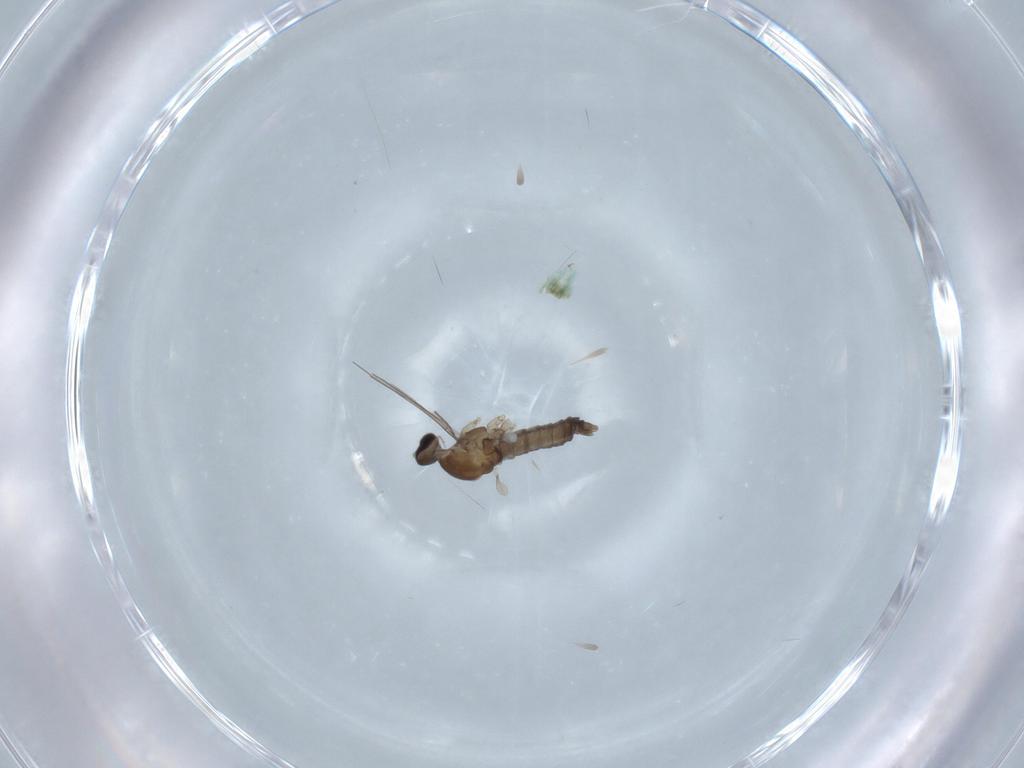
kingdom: Animalia
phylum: Arthropoda
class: Insecta
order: Diptera
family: Cecidomyiidae
